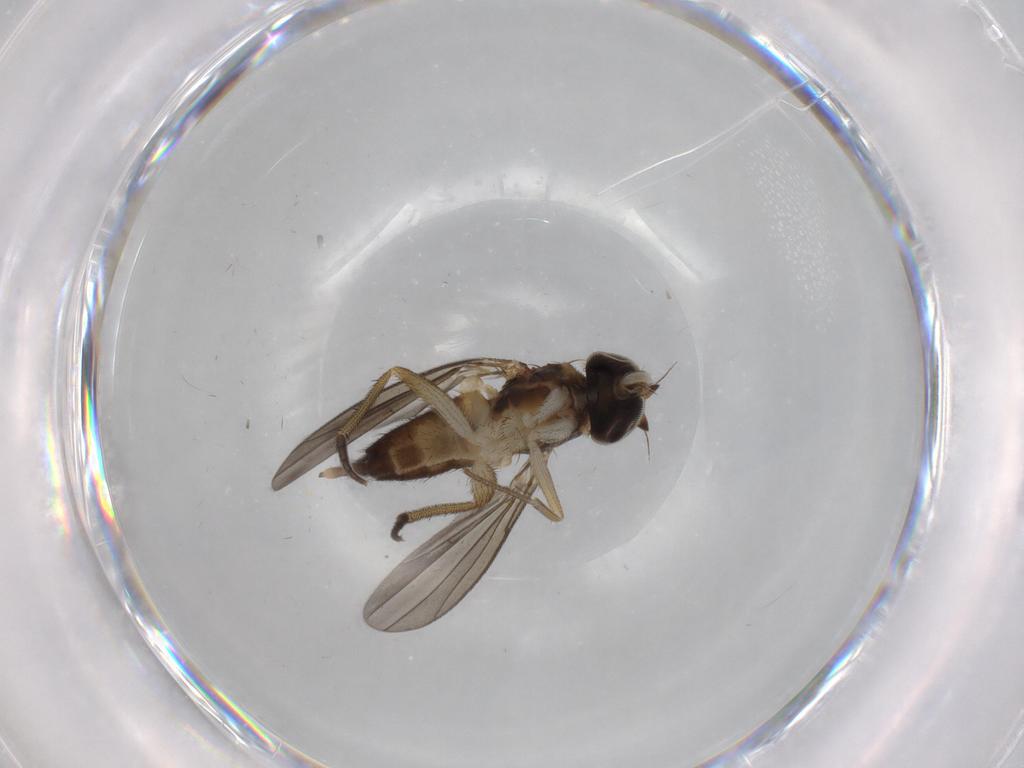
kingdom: Animalia
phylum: Arthropoda
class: Insecta
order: Diptera
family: Dolichopodidae
